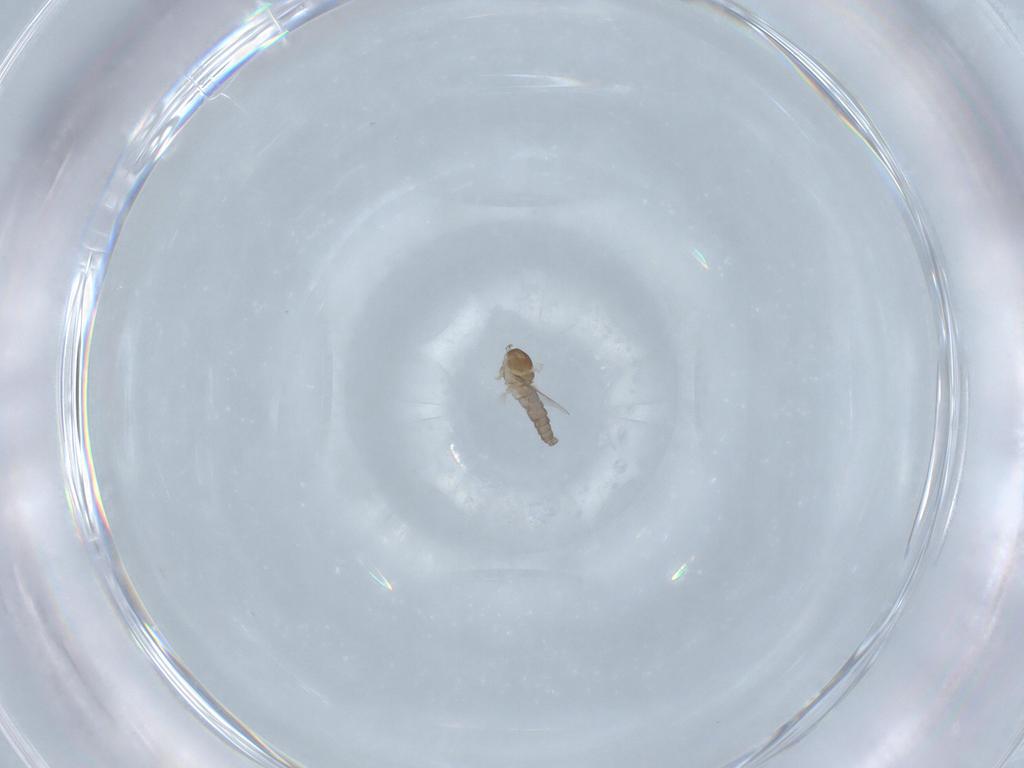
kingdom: Animalia
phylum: Arthropoda
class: Insecta
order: Diptera
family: Cecidomyiidae
